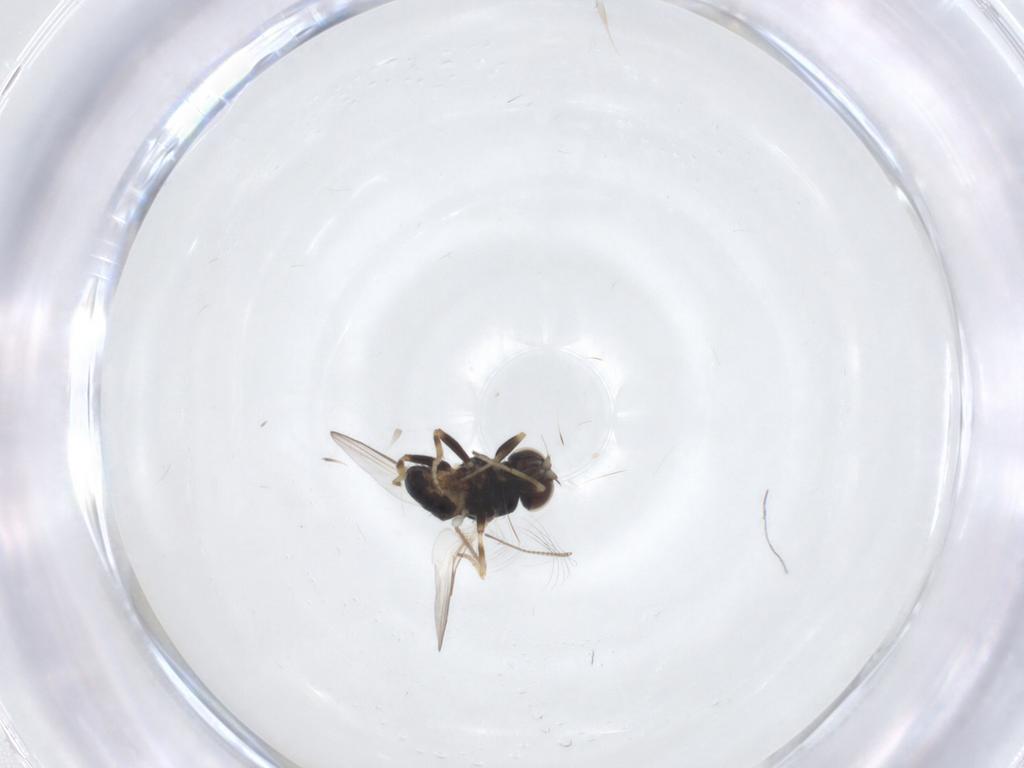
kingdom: Animalia
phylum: Arthropoda
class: Insecta
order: Diptera
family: Chloropidae
